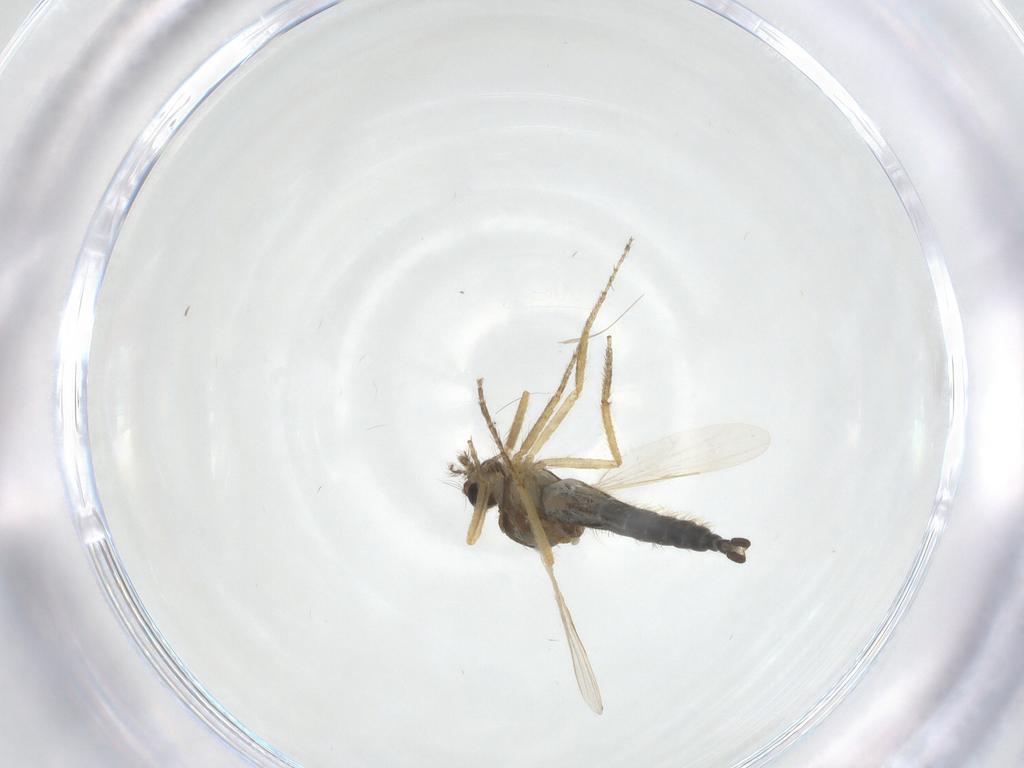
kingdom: Animalia
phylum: Arthropoda
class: Insecta
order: Diptera
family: Ceratopogonidae
